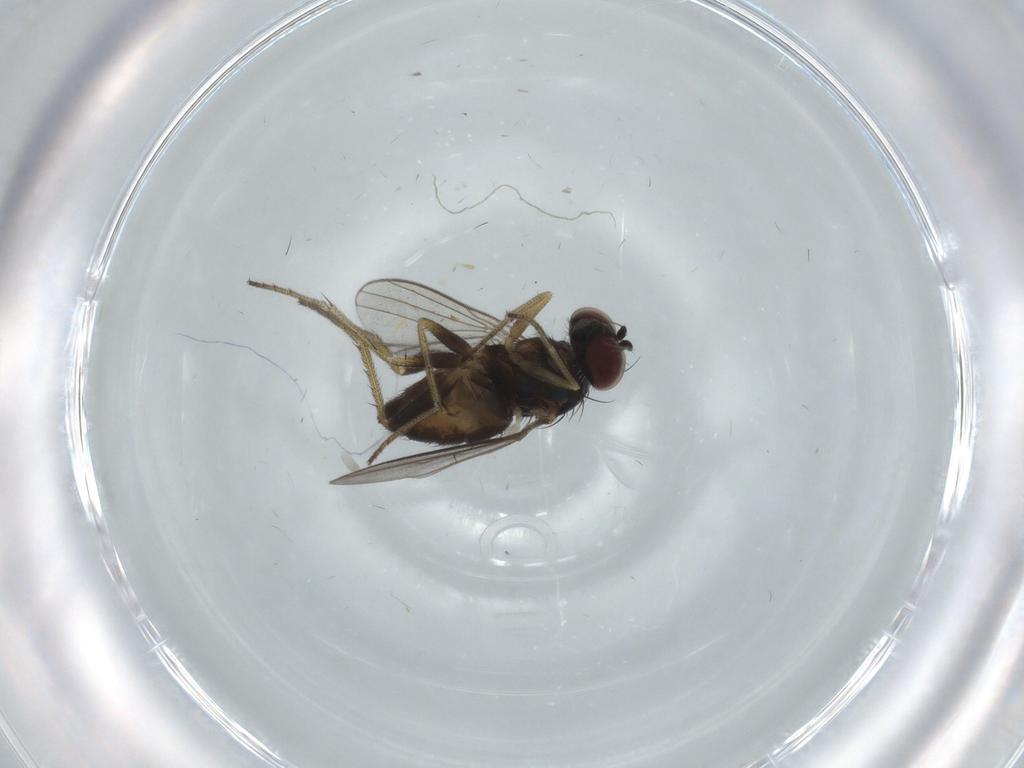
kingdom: Animalia
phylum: Arthropoda
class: Insecta
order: Diptera
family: Dolichopodidae
